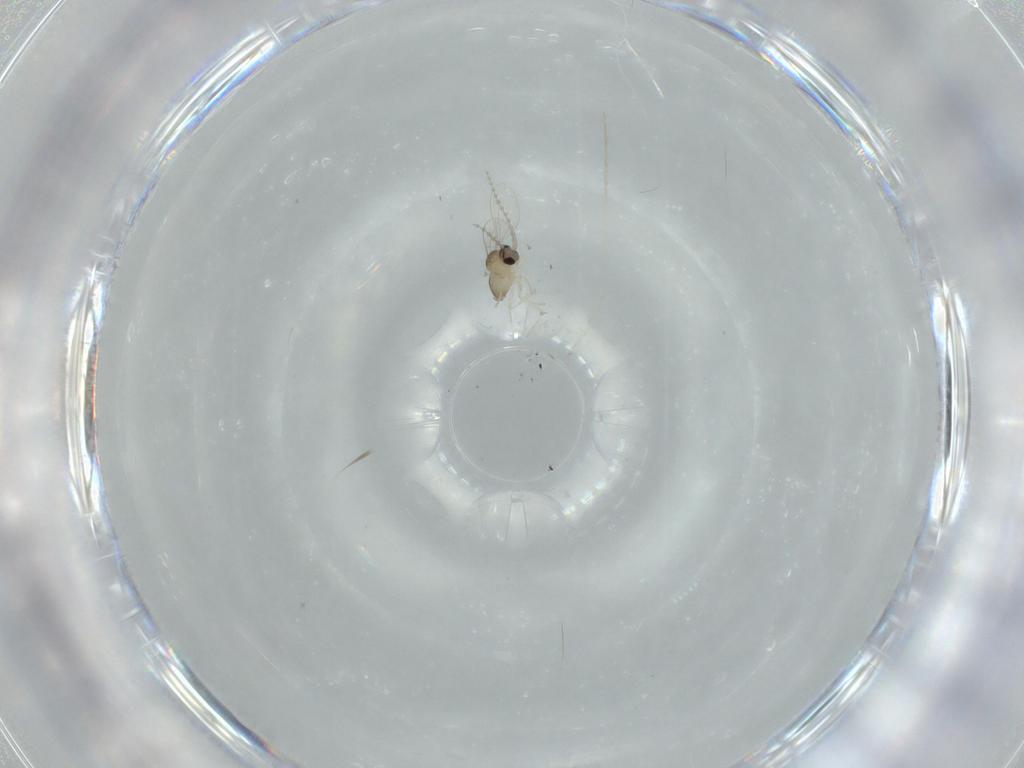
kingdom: Animalia
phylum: Arthropoda
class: Insecta
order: Diptera
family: Cecidomyiidae
